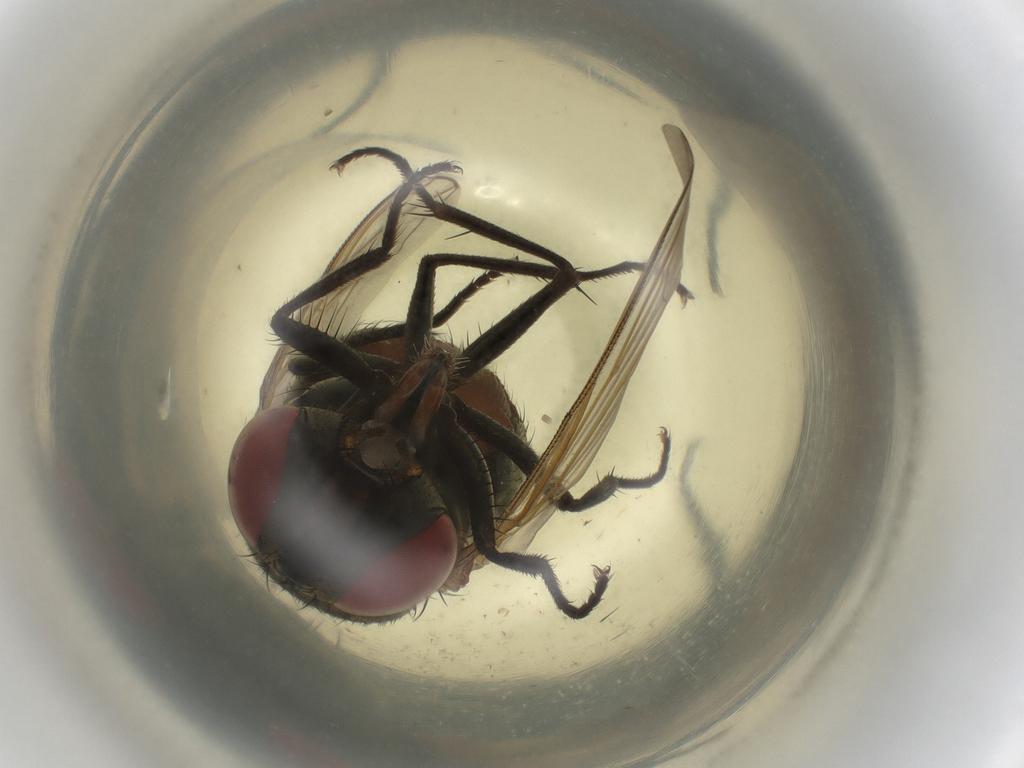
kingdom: Animalia
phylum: Arthropoda
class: Insecta
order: Diptera
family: Muscidae
